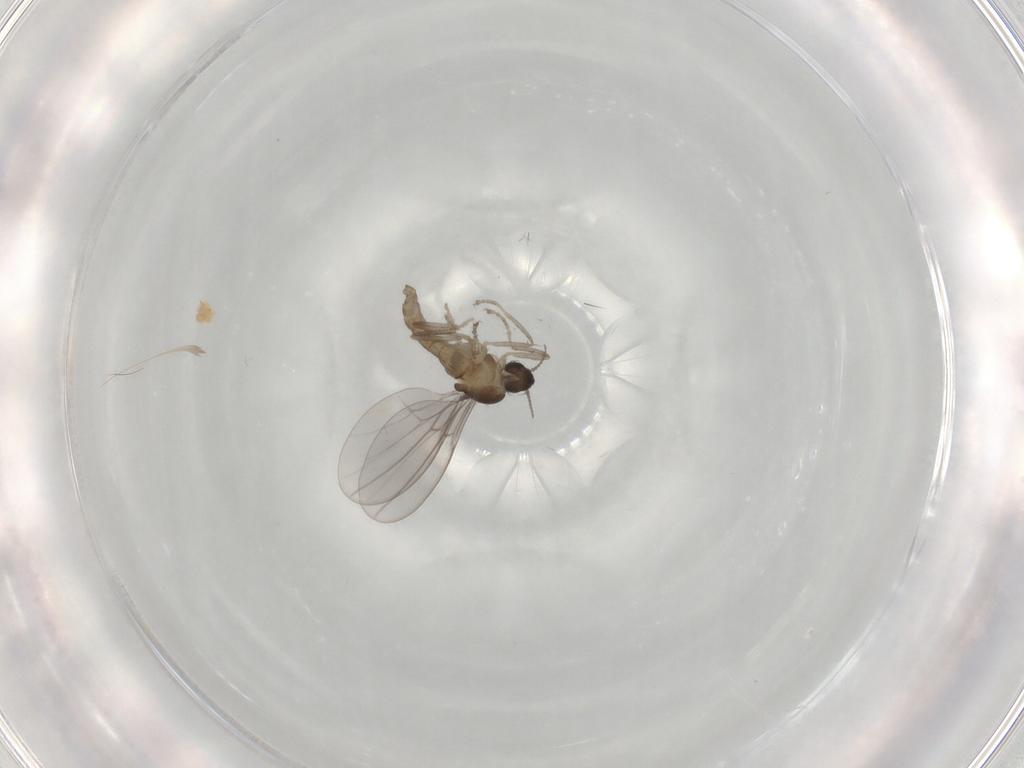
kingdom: Animalia
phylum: Arthropoda
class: Insecta
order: Diptera
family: Cecidomyiidae
